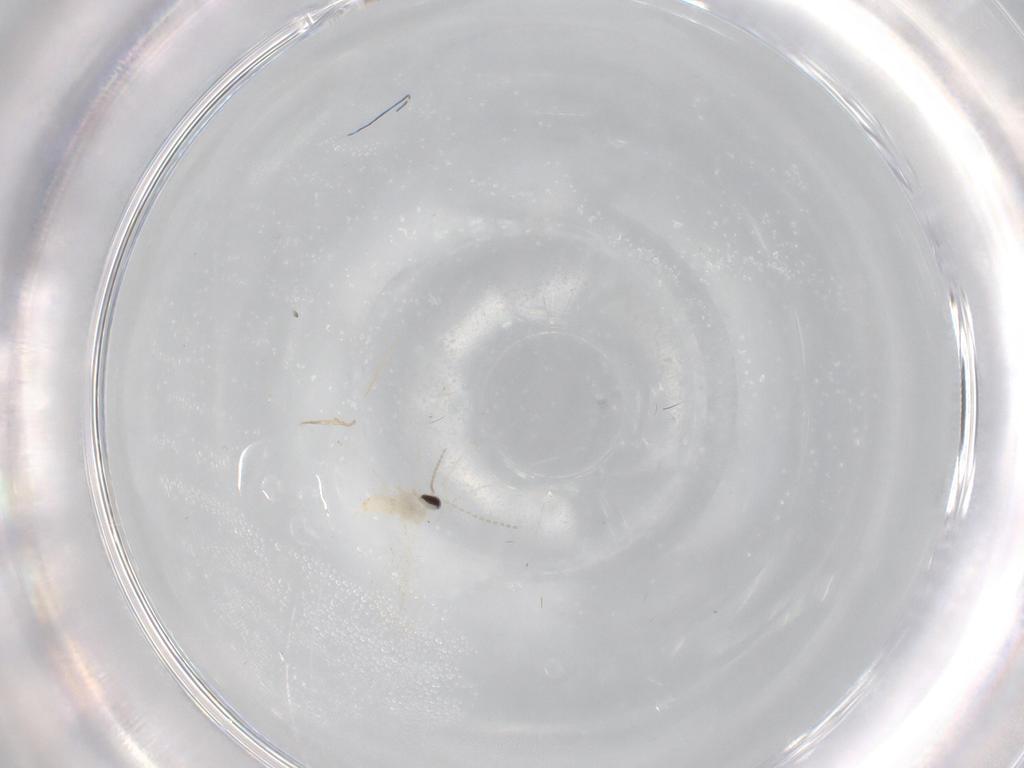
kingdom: Animalia
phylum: Arthropoda
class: Insecta
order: Diptera
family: Cecidomyiidae
